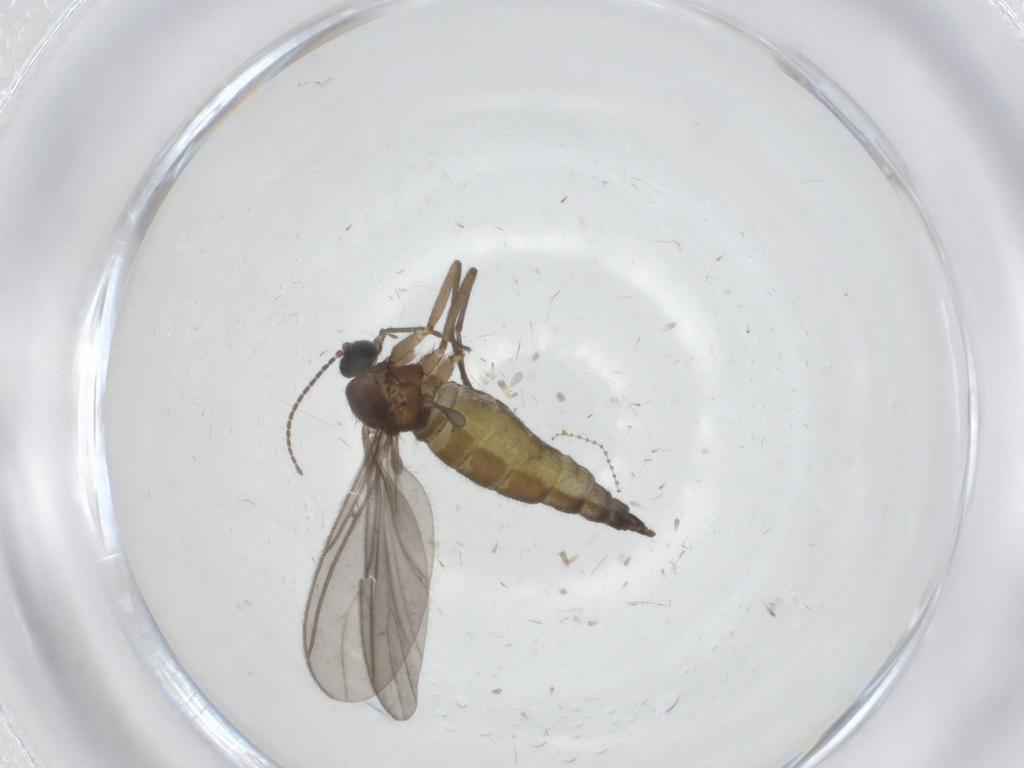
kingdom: Animalia
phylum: Arthropoda
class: Insecta
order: Diptera
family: Sciaridae
